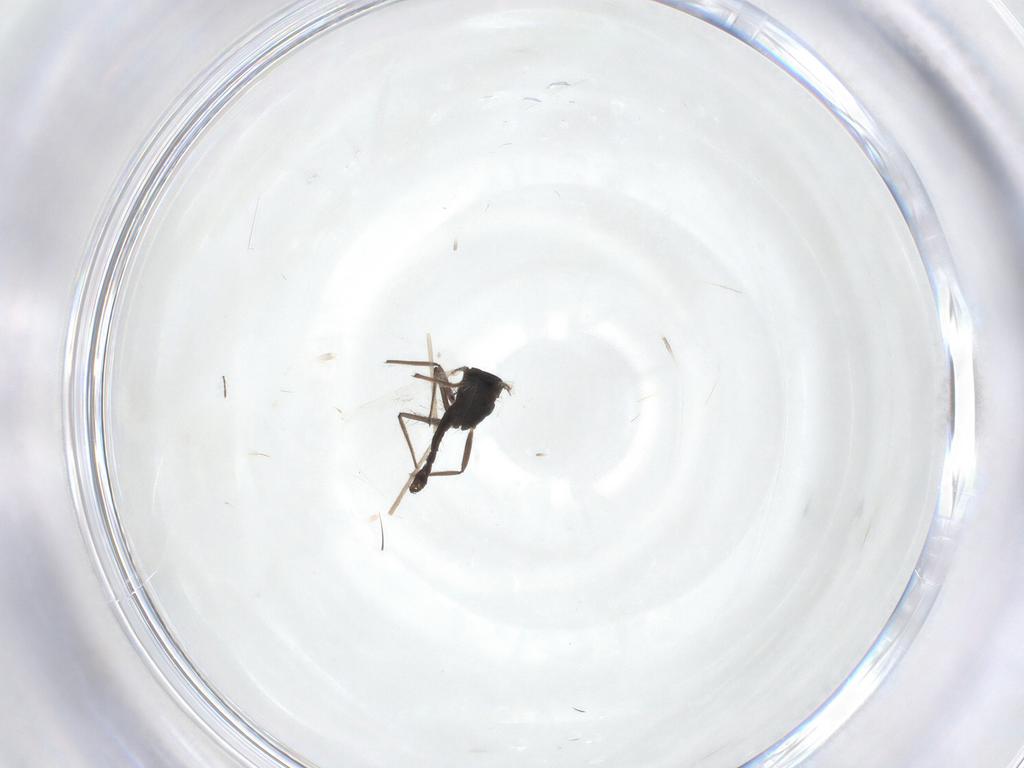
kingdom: Animalia
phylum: Arthropoda
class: Insecta
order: Diptera
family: Chironomidae
